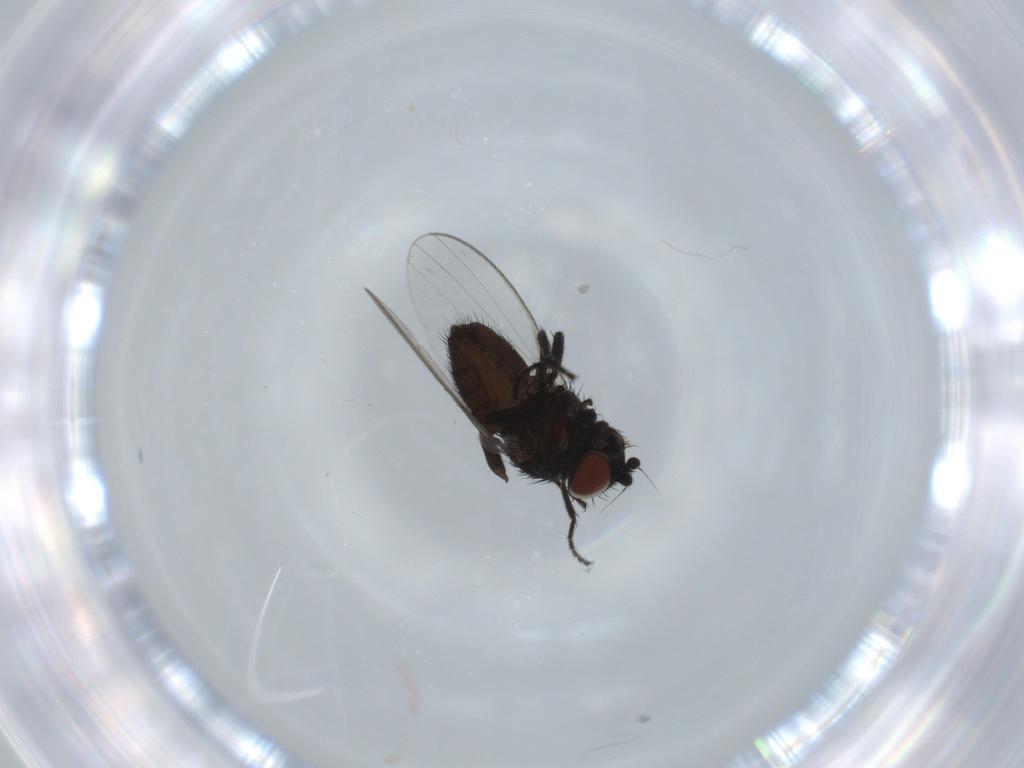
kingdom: Animalia
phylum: Arthropoda
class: Insecta
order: Diptera
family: Milichiidae
